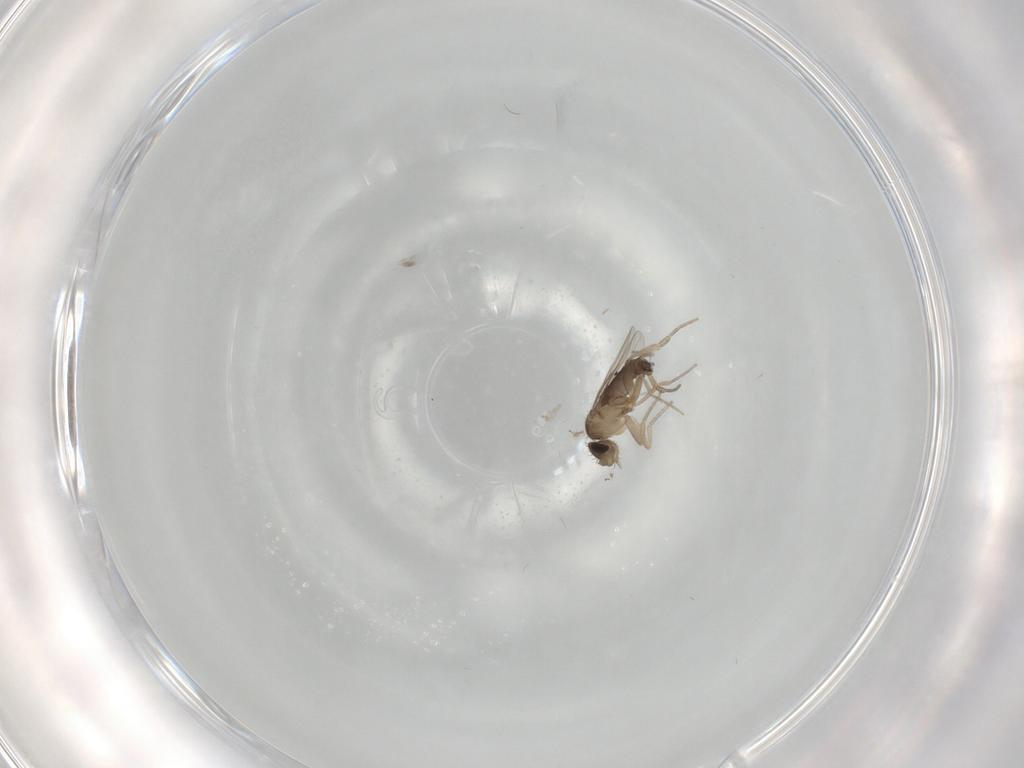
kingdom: Animalia
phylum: Arthropoda
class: Insecta
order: Diptera
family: Phoridae
